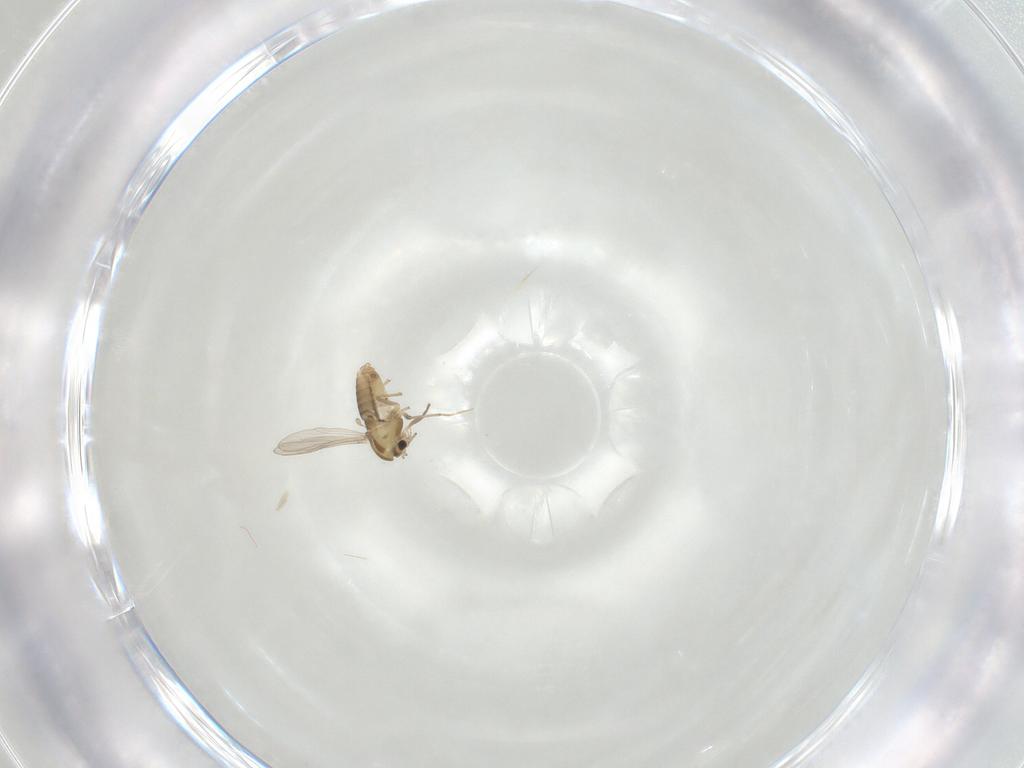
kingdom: Animalia
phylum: Arthropoda
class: Insecta
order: Diptera
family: Chironomidae
